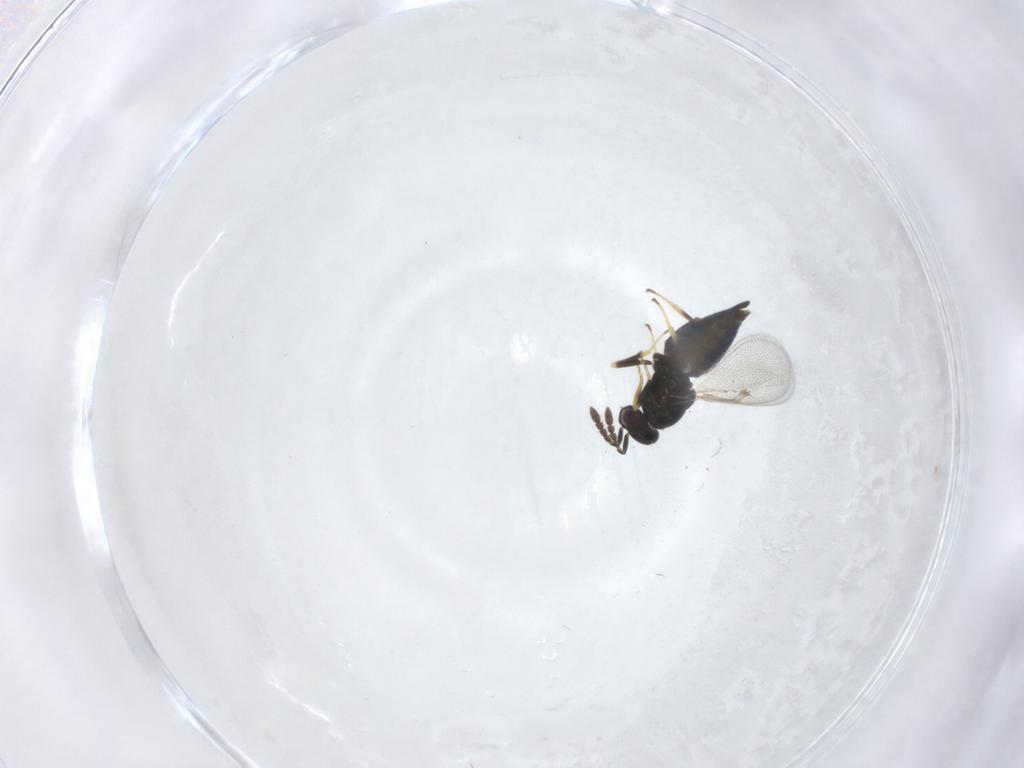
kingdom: Animalia
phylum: Arthropoda
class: Insecta
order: Hymenoptera
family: Eulophidae
